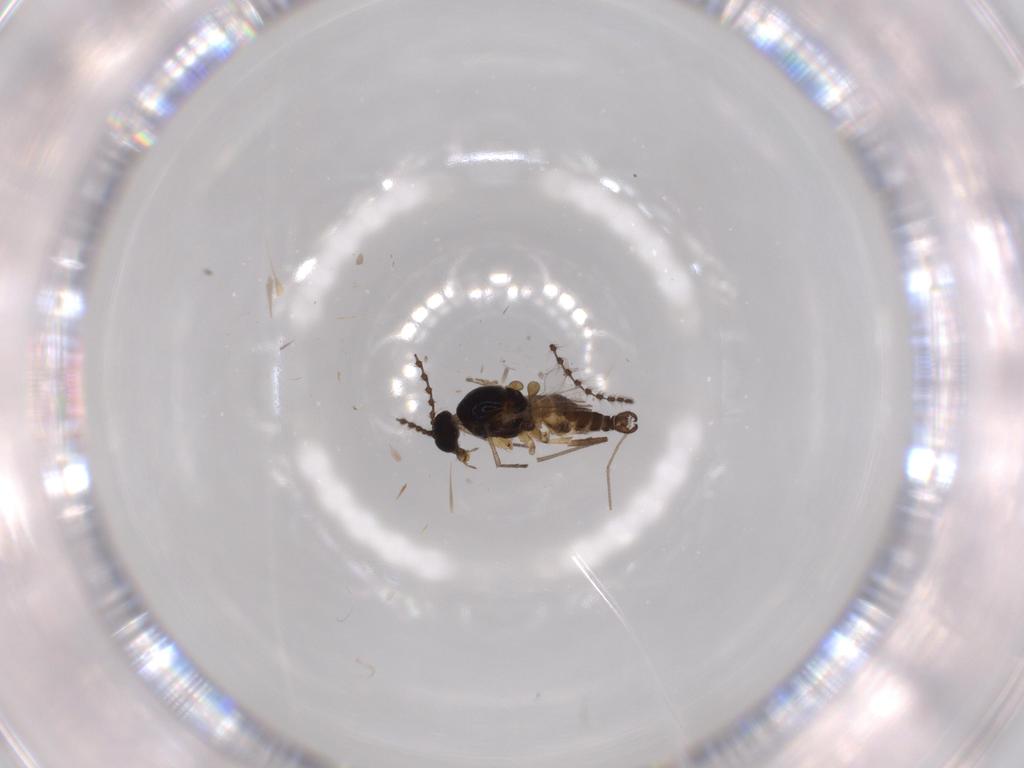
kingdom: Animalia
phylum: Arthropoda
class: Insecta
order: Diptera
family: Sciaridae
